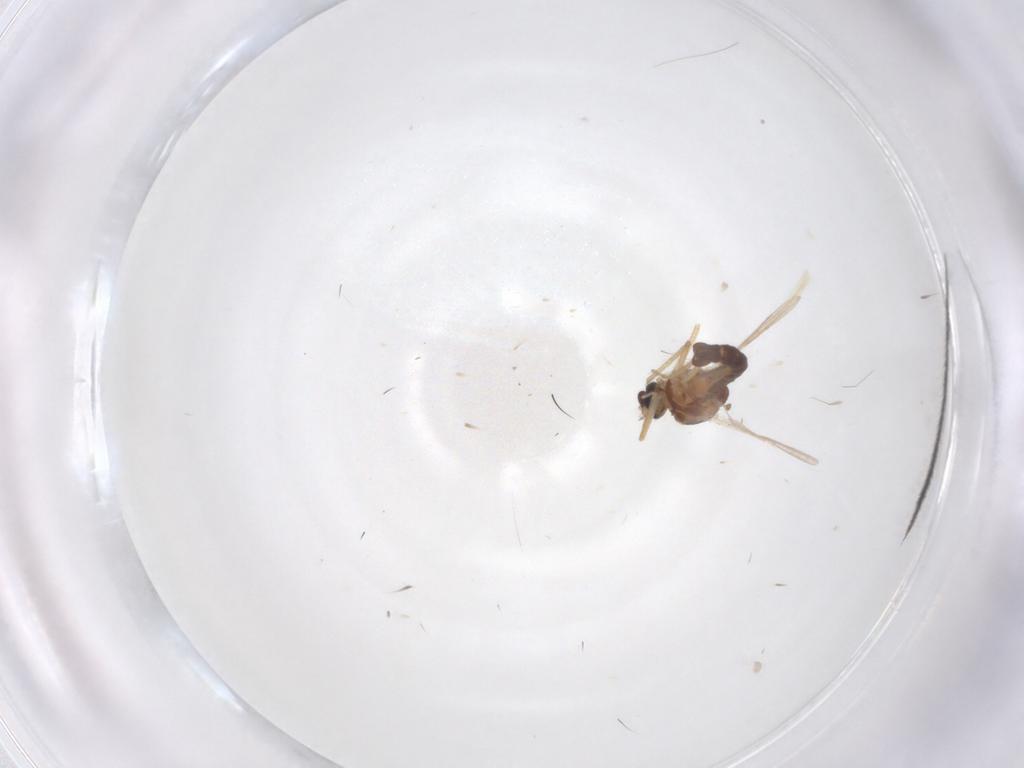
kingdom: Animalia
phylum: Arthropoda
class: Insecta
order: Diptera
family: Ceratopogonidae
